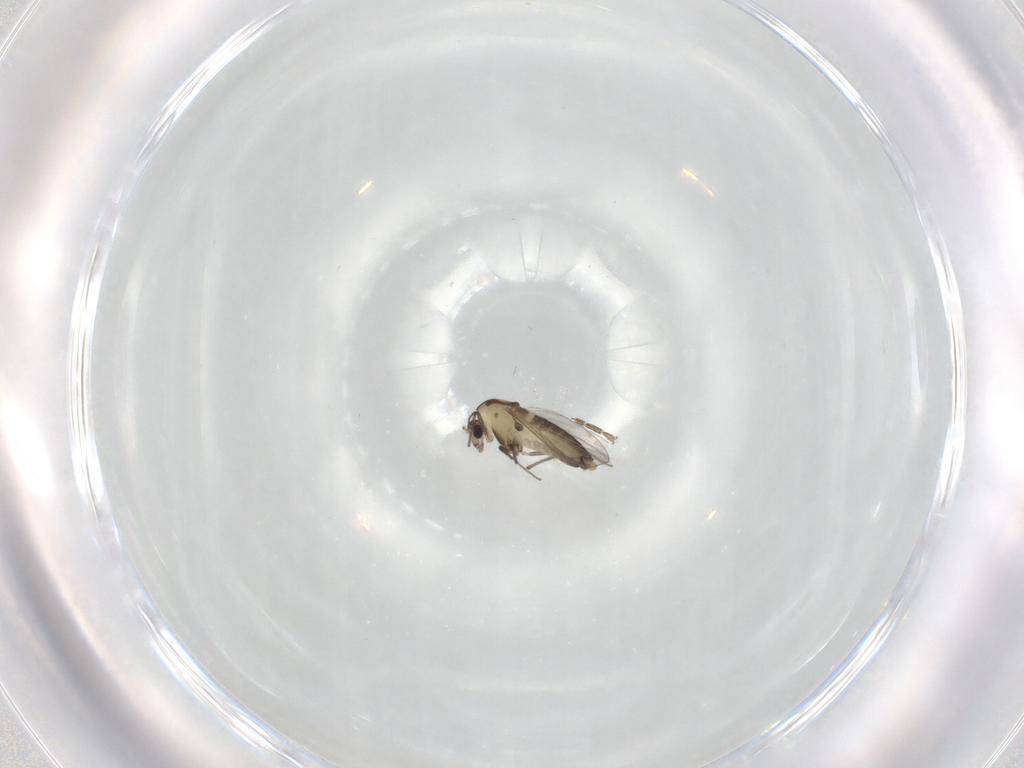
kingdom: Animalia
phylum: Arthropoda
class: Insecta
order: Diptera
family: Chironomidae
